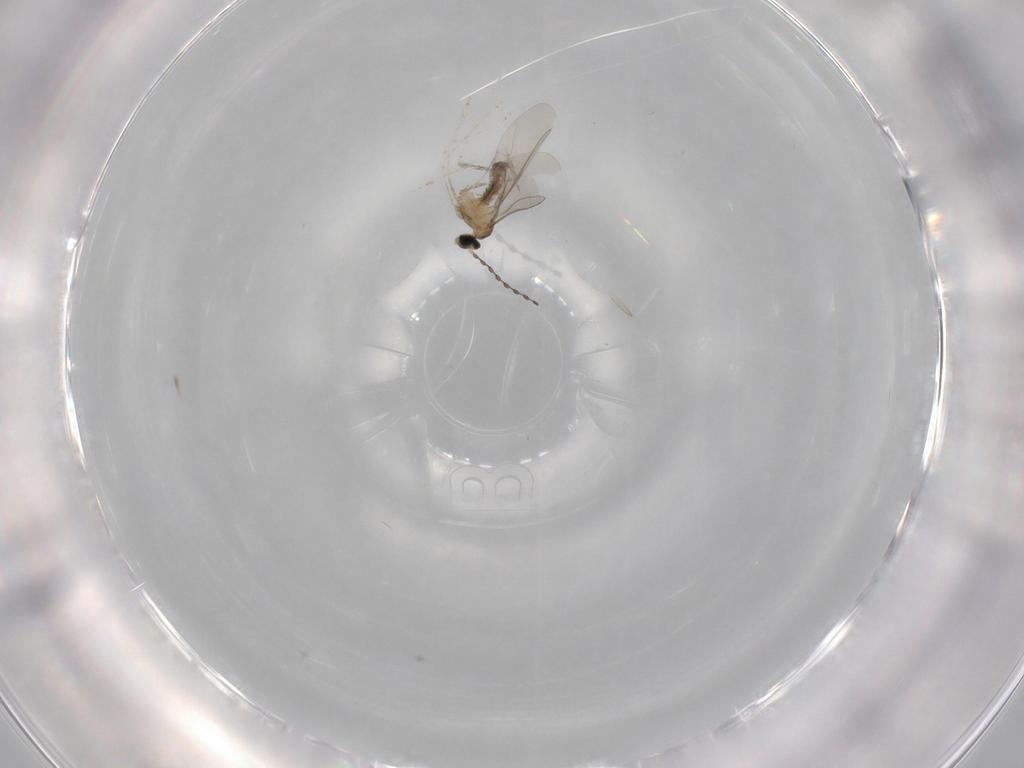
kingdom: Animalia
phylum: Arthropoda
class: Insecta
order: Diptera
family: Cecidomyiidae
